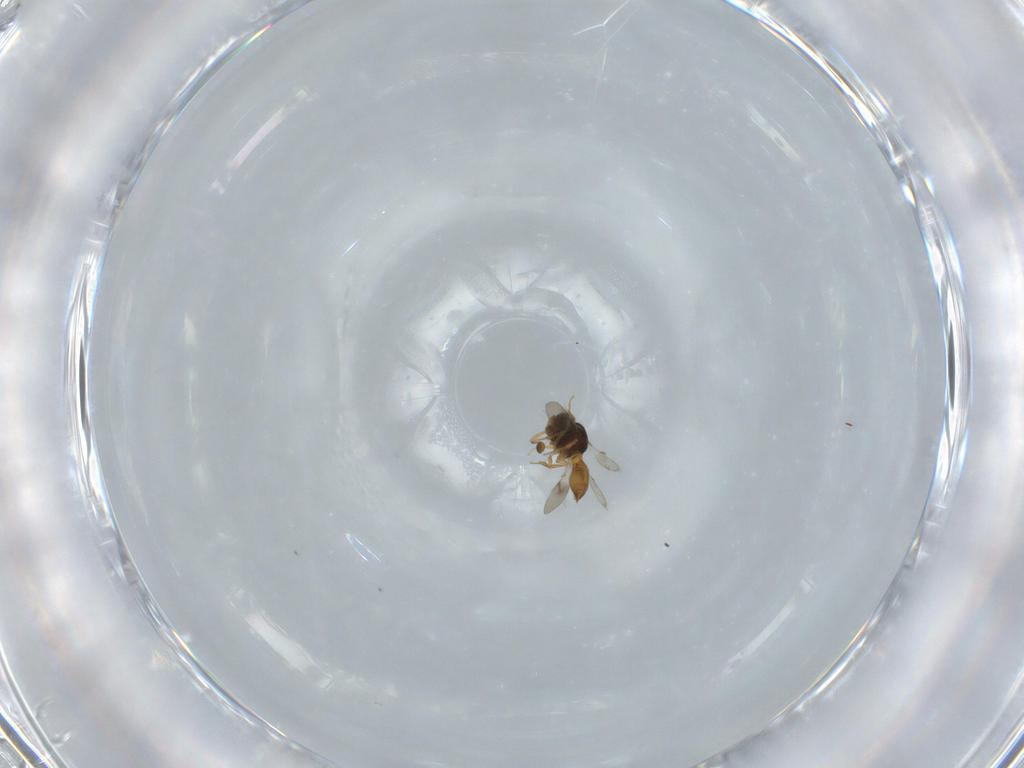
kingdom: Animalia
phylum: Arthropoda
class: Insecta
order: Hymenoptera
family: Scelionidae
